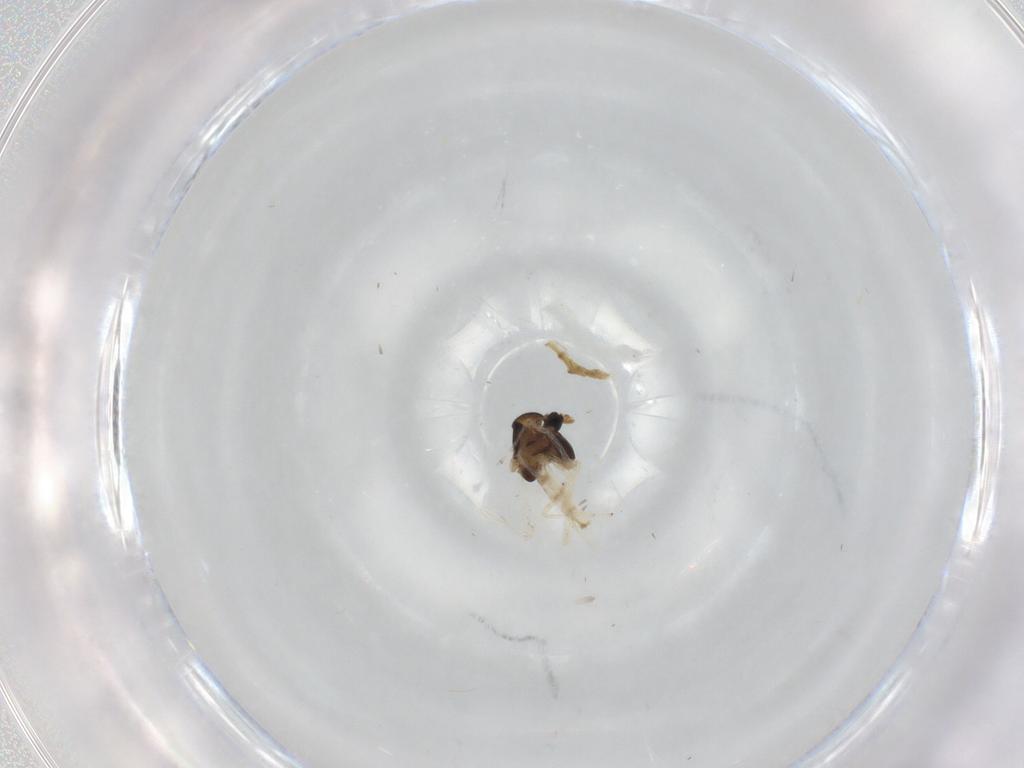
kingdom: Animalia
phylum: Arthropoda
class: Insecta
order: Diptera
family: Chironomidae
